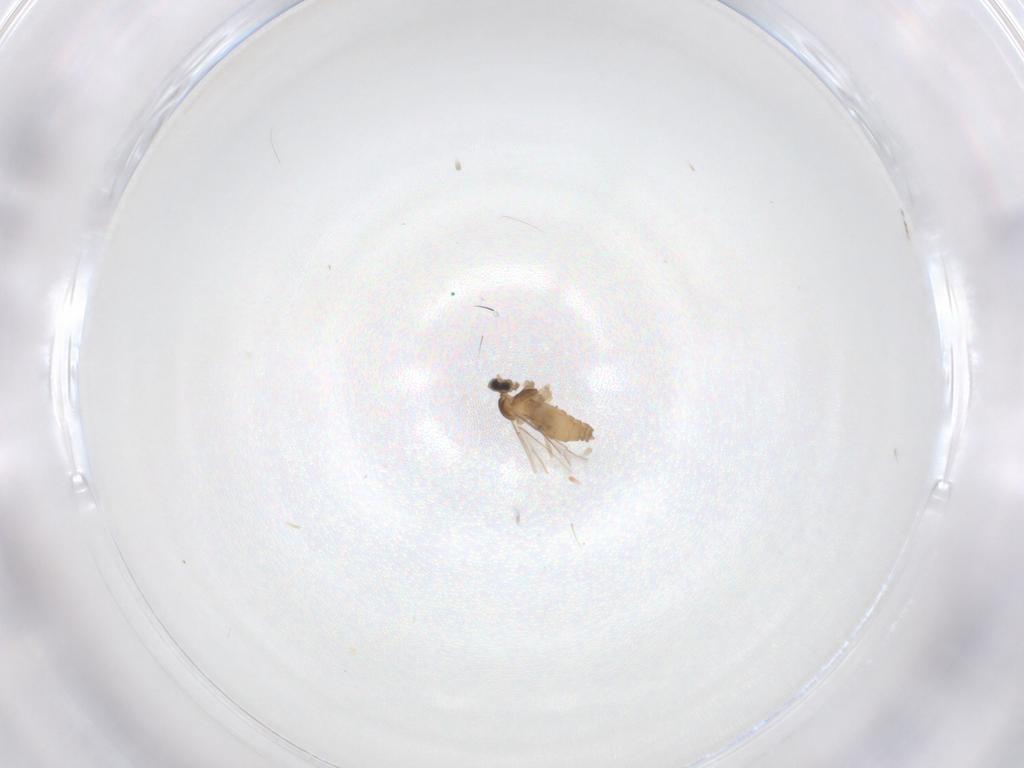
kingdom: Animalia
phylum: Arthropoda
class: Insecta
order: Diptera
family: Cecidomyiidae
